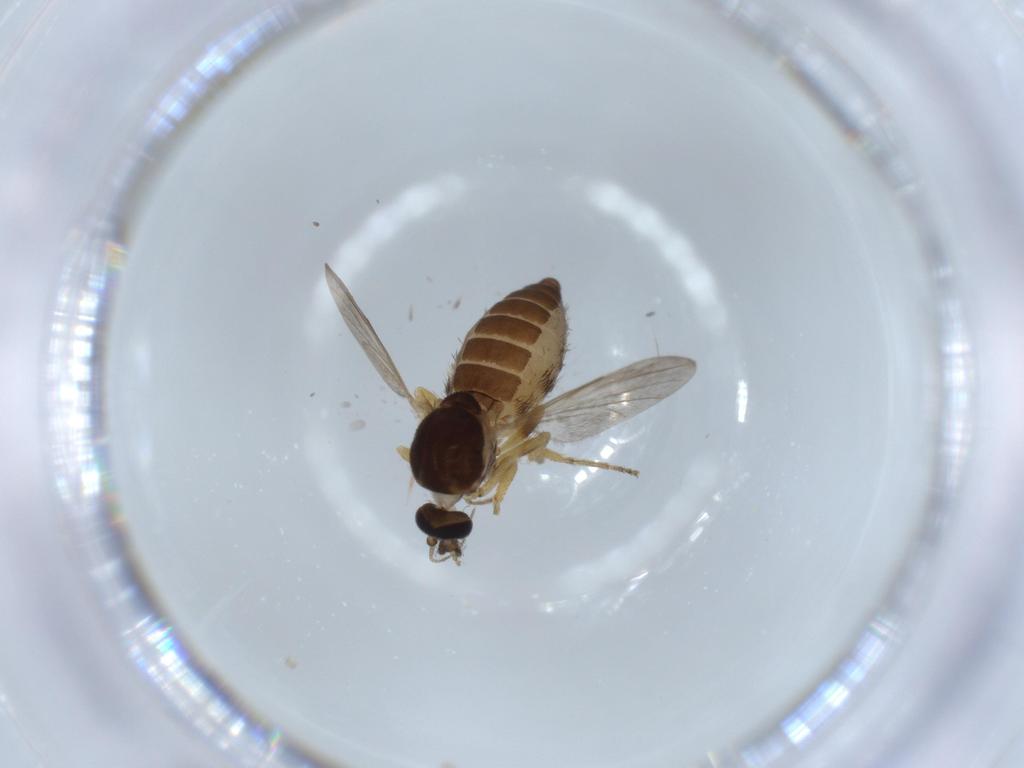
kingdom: Animalia
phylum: Arthropoda
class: Insecta
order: Diptera
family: Ceratopogonidae
